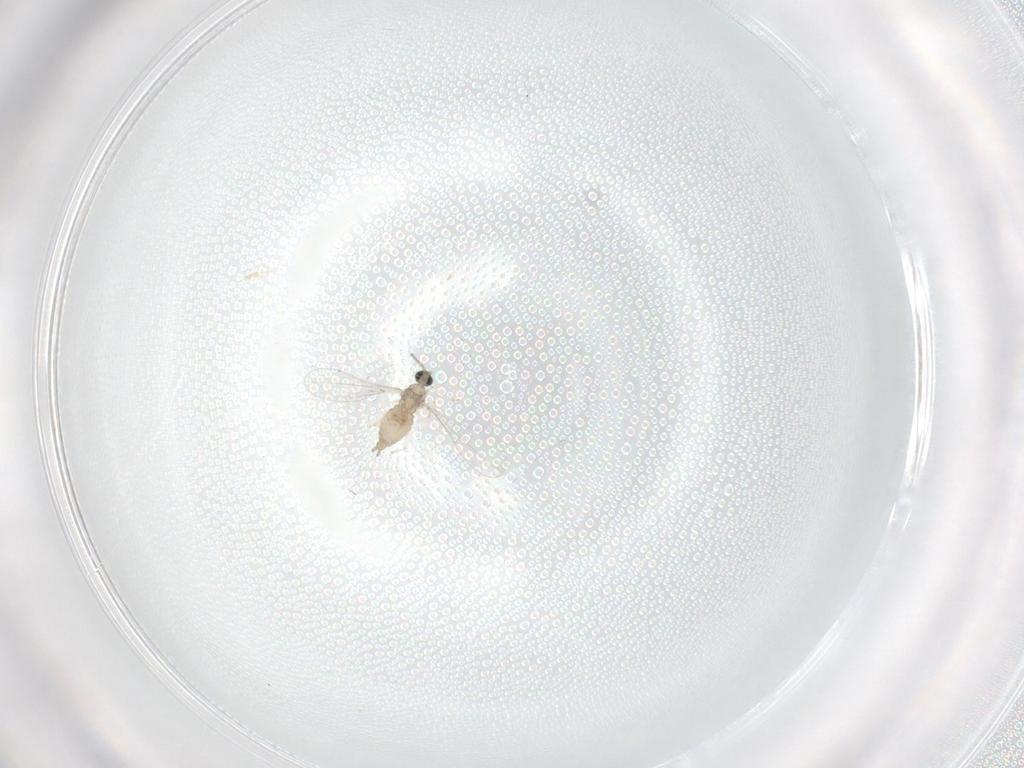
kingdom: Animalia
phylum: Arthropoda
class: Insecta
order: Diptera
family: Cecidomyiidae
